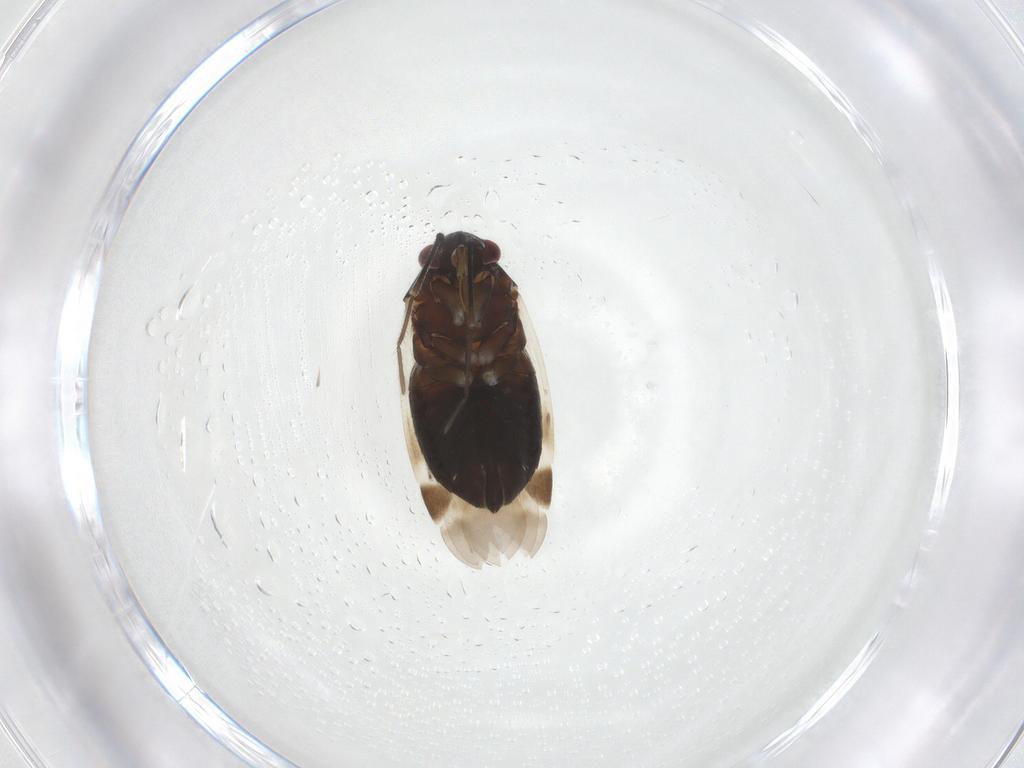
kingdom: Animalia
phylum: Arthropoda
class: Insecta
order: Hemiptera
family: Miridae
